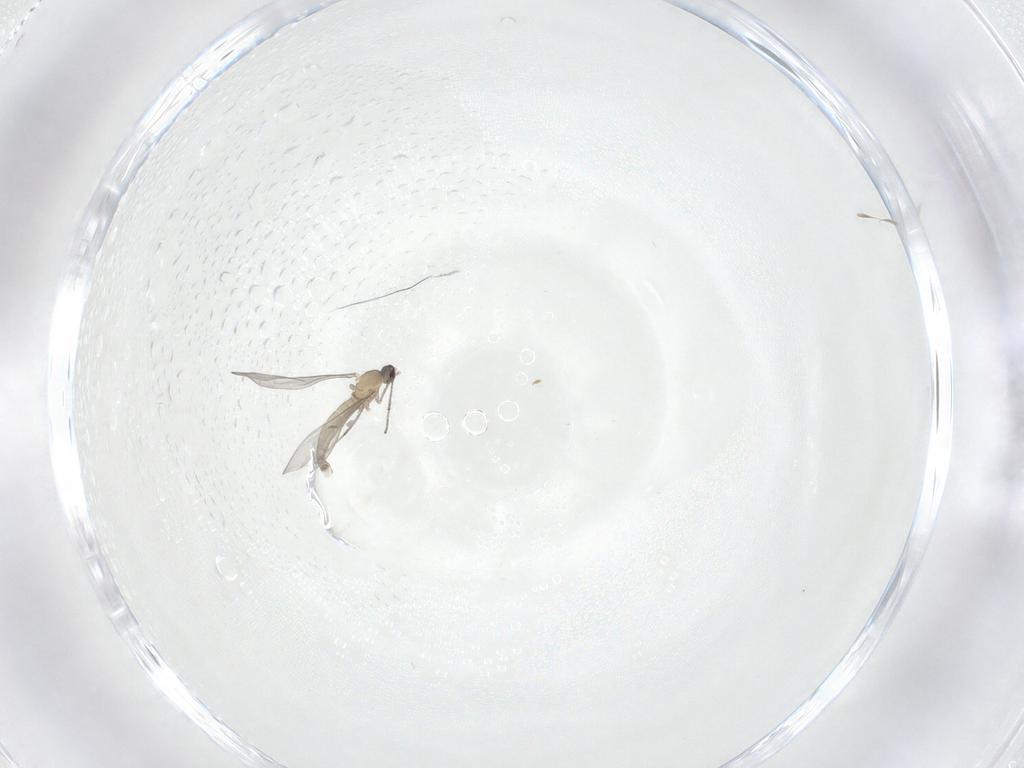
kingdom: Animalia
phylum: Arthropoda
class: Insecta
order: Diptera
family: Cecidomyiidae
